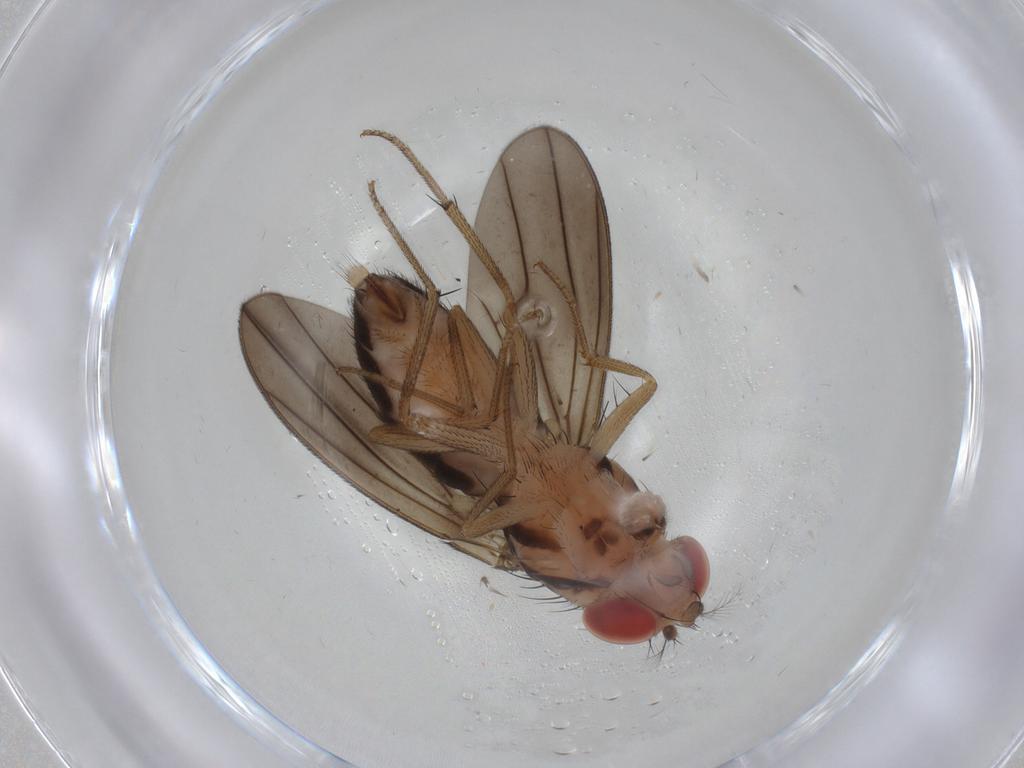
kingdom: Animalia
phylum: Arthropoda
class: Insecta
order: Diptera
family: Drosophilidae
